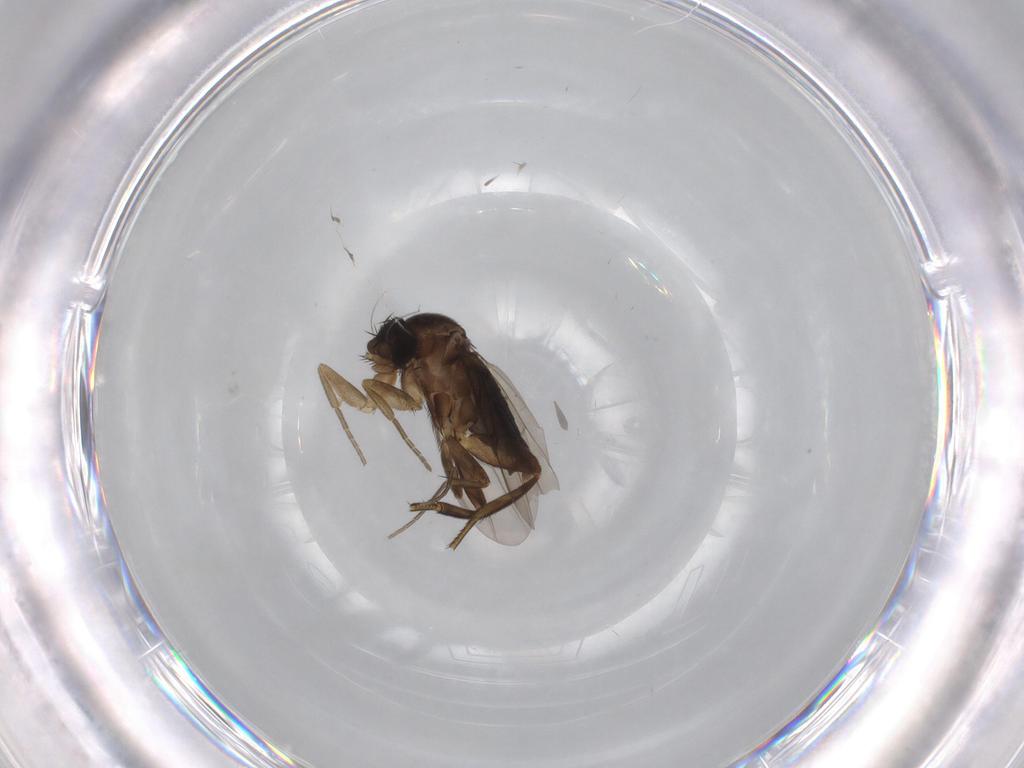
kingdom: Animalia
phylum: Arthropoda
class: Insecta
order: Diptera
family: Phoridae
